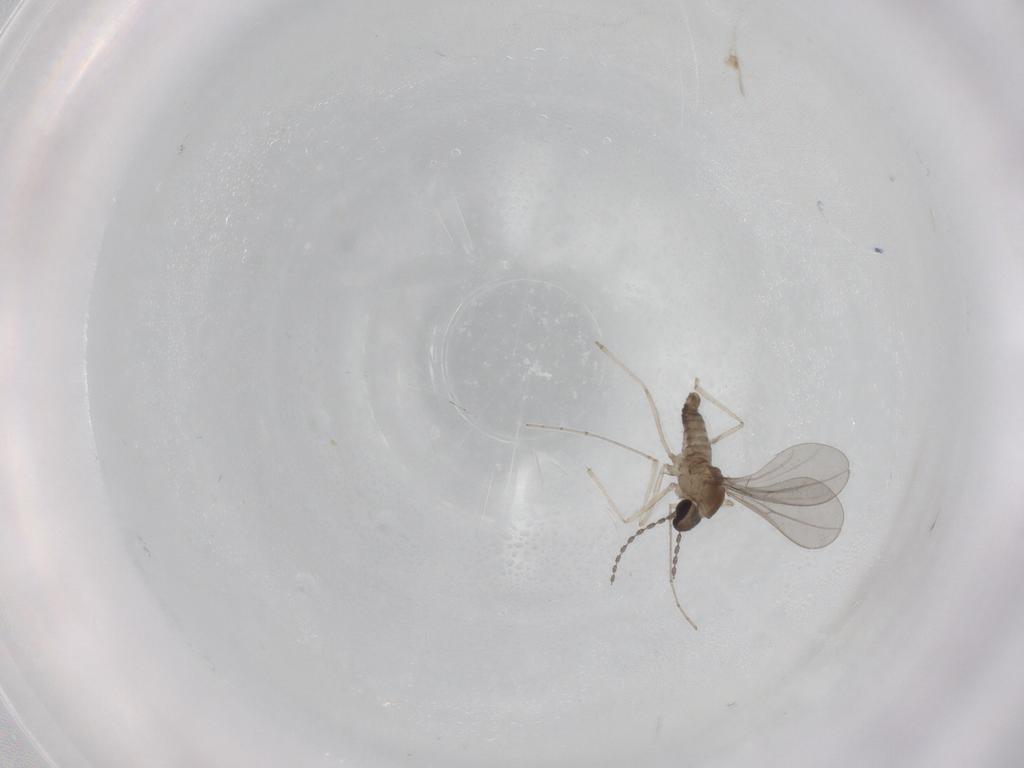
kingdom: Animalia
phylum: Arthropoda
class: Insecta
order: Diptera
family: Cecidomyiidae
